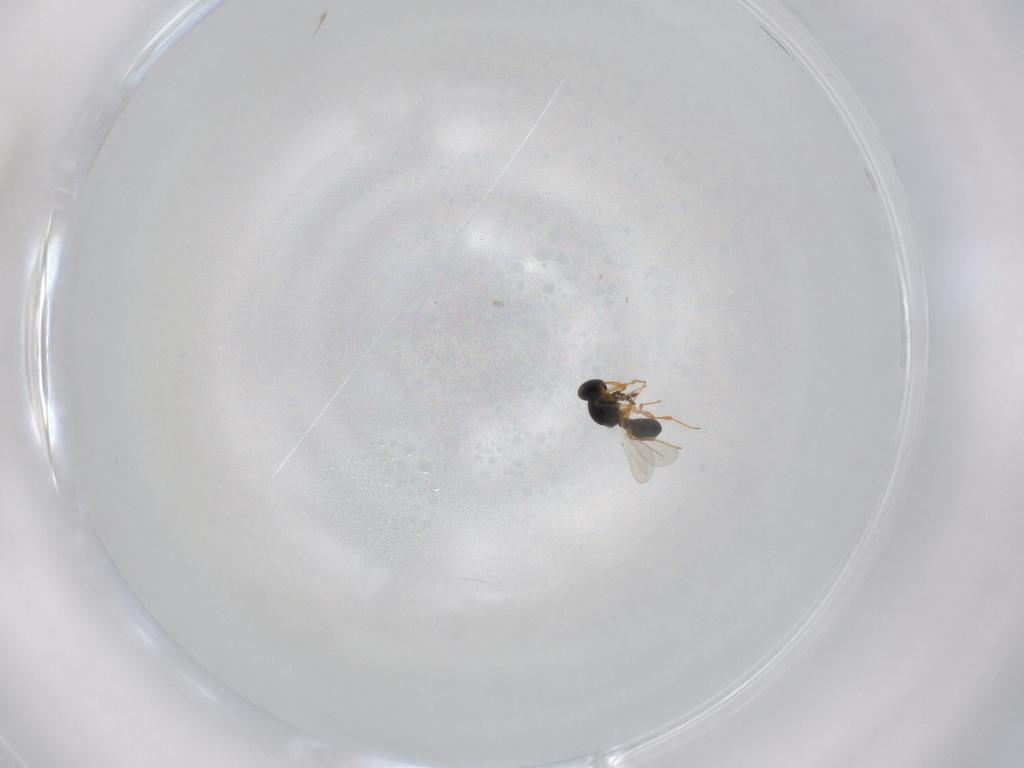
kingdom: Animalia
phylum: Arthropoda
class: Insecta
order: Hymenoptera
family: Platygastridae
